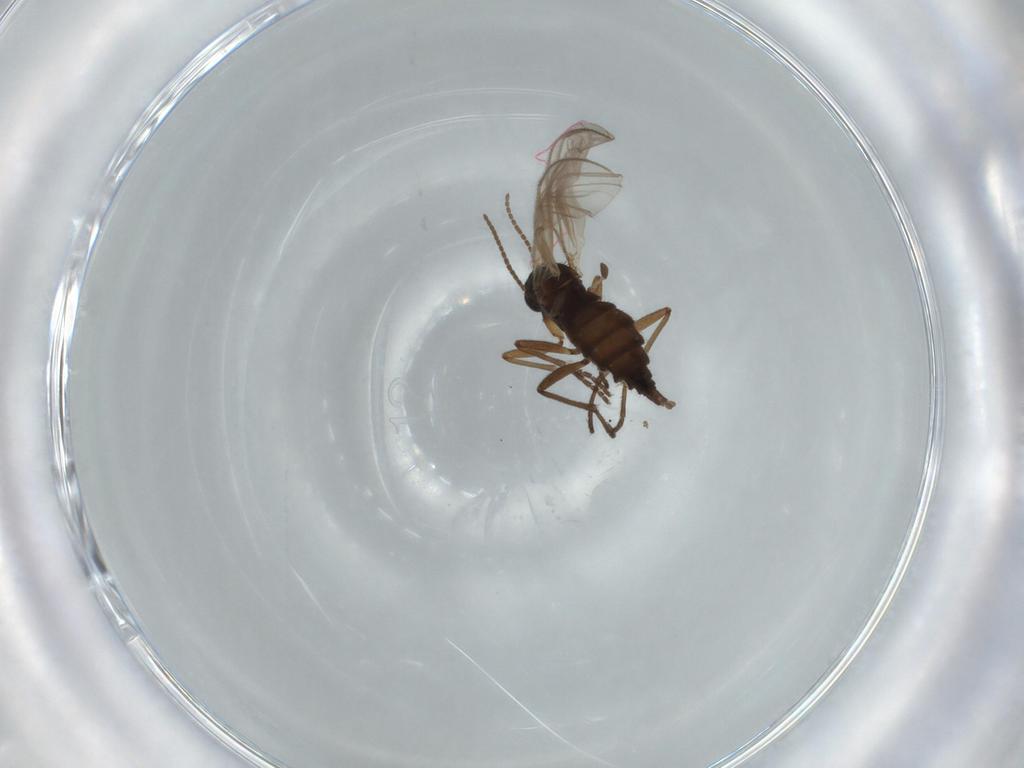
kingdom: Animalia
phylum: Arthropoda
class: Insecta
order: Diptera
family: Sciaridae
